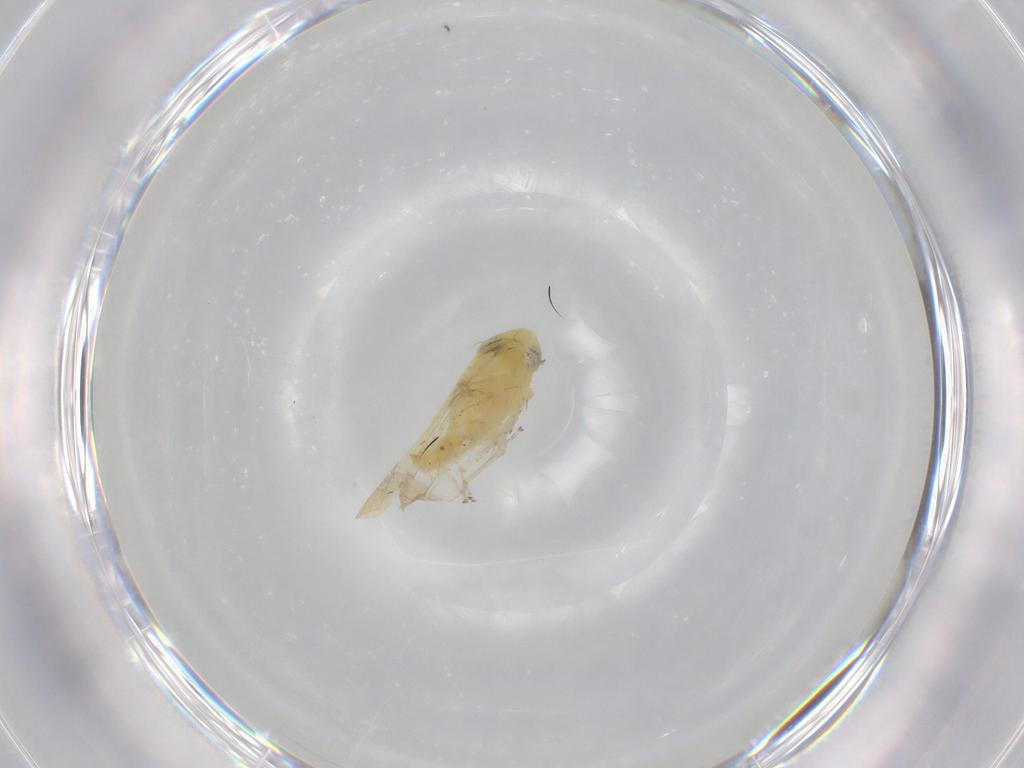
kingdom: Animalia
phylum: Arthropoda
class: Insecta
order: Hemiptera
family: Cicadellidae
